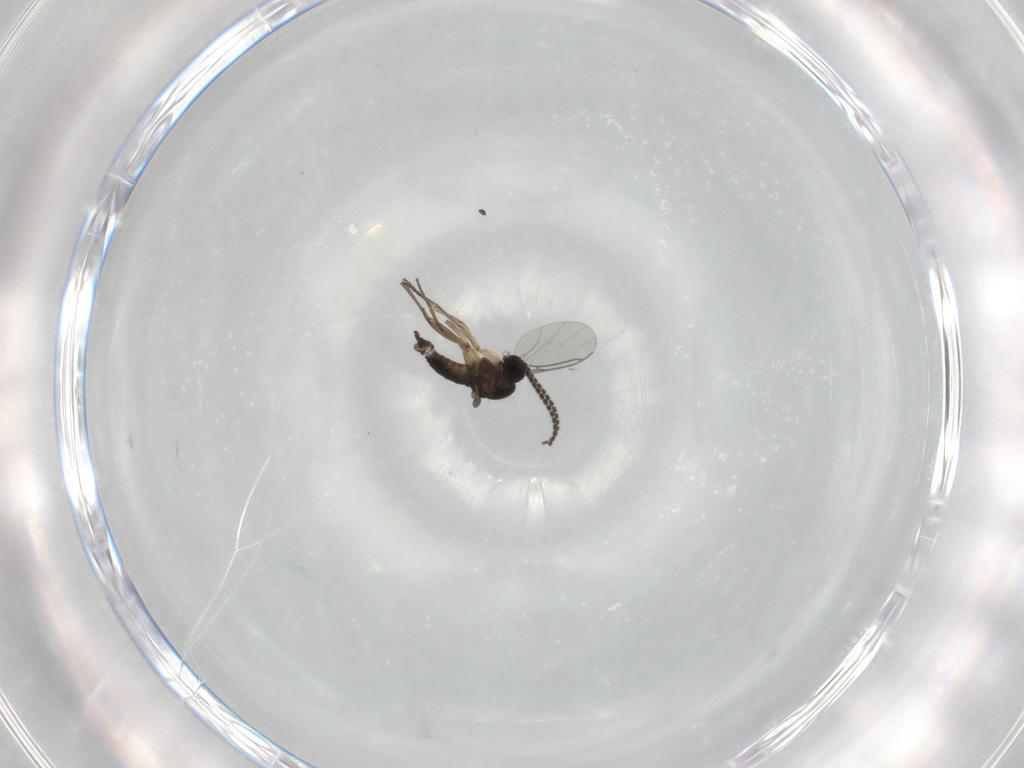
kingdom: Animalia
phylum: Arthropoda
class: Insecta
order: Diptera
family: Sciaridae
